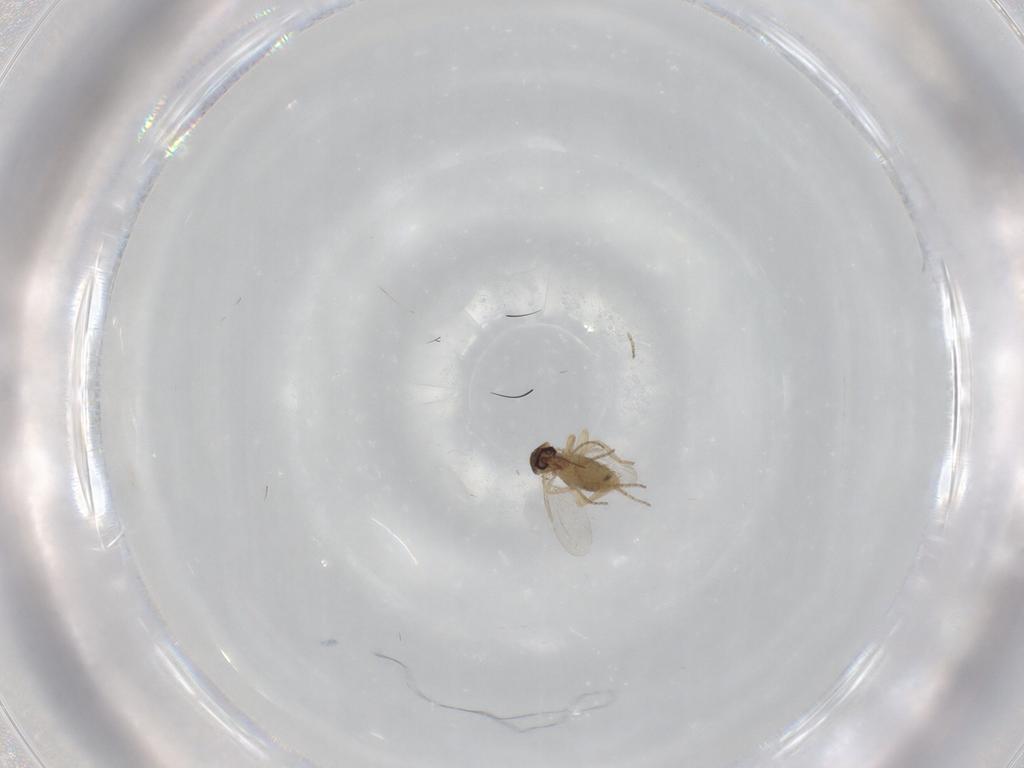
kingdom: Animalia
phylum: Arthropoda
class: Insecta
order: Diptera
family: Ceratopogonidae
